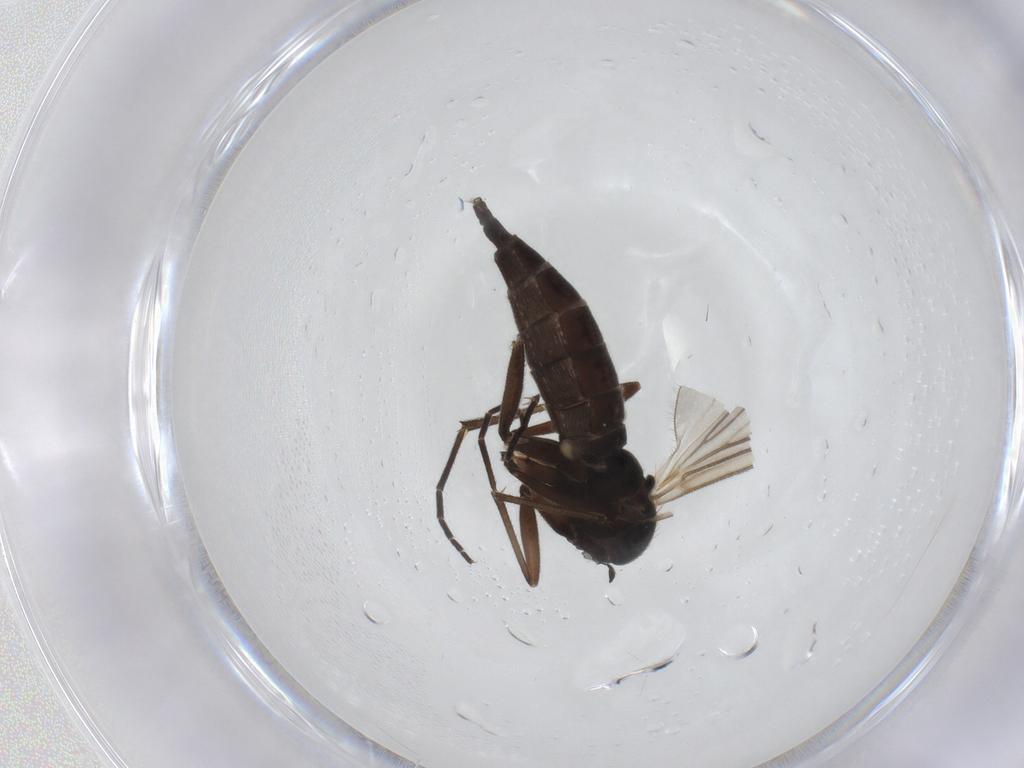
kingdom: Animalia
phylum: Arthropoda
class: Insecta
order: Diptera
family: Sciaridae
